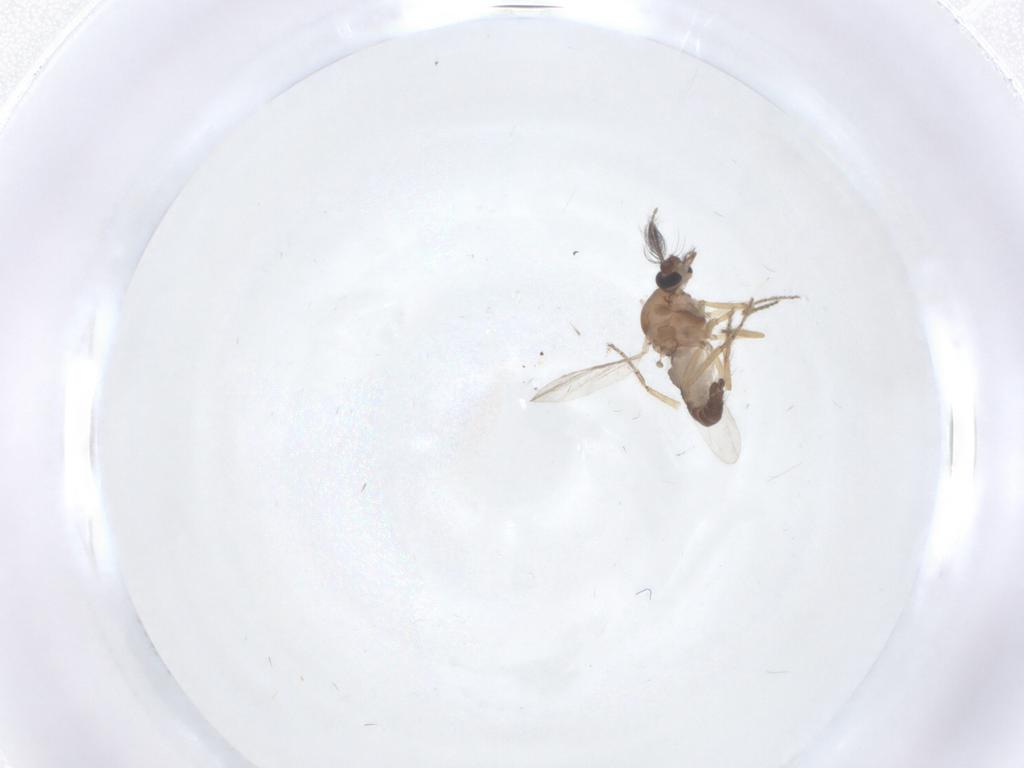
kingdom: Animalia
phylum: Arthropoda
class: Insecta
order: Diptera
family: Ceratopogonidae
